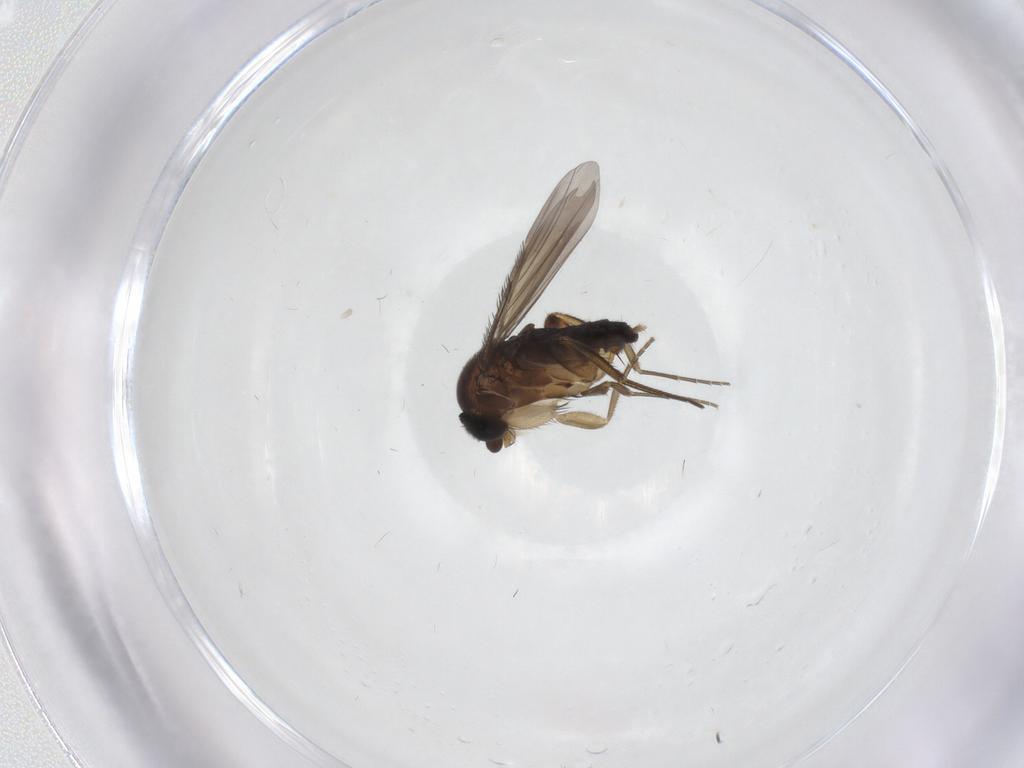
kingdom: Animalia
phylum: Arthropoda
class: Insecta
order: Diptera
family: Phoridae
